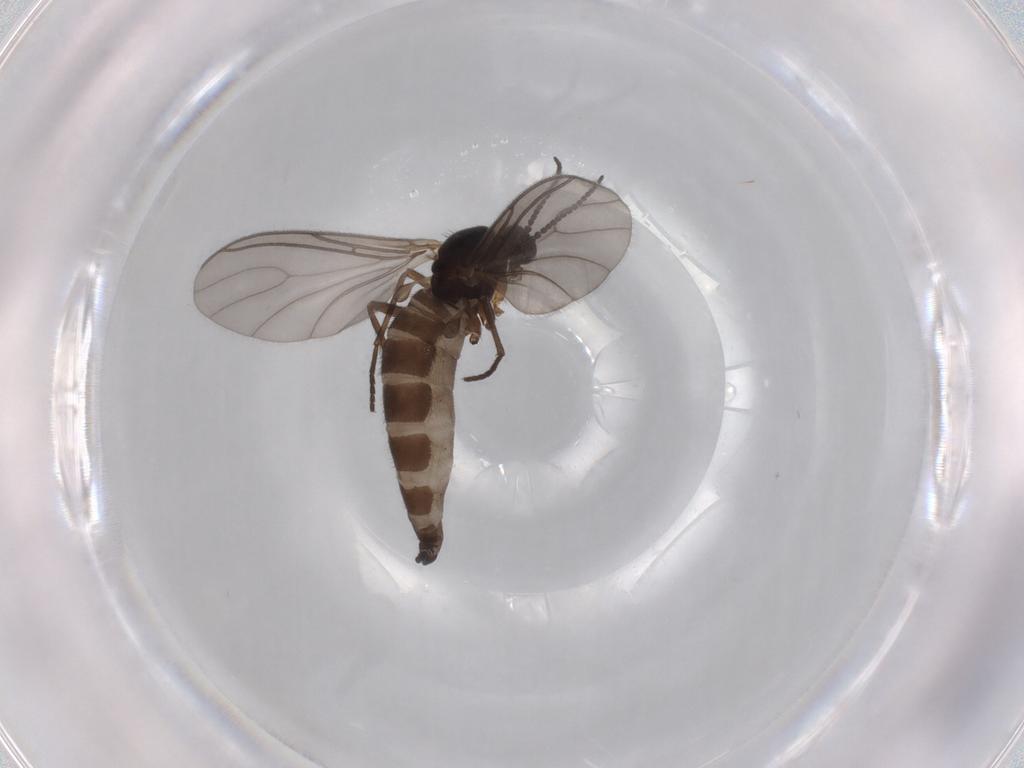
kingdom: Animalia
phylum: Arthropoda
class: Insecta
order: Diptera
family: Sciaridae
